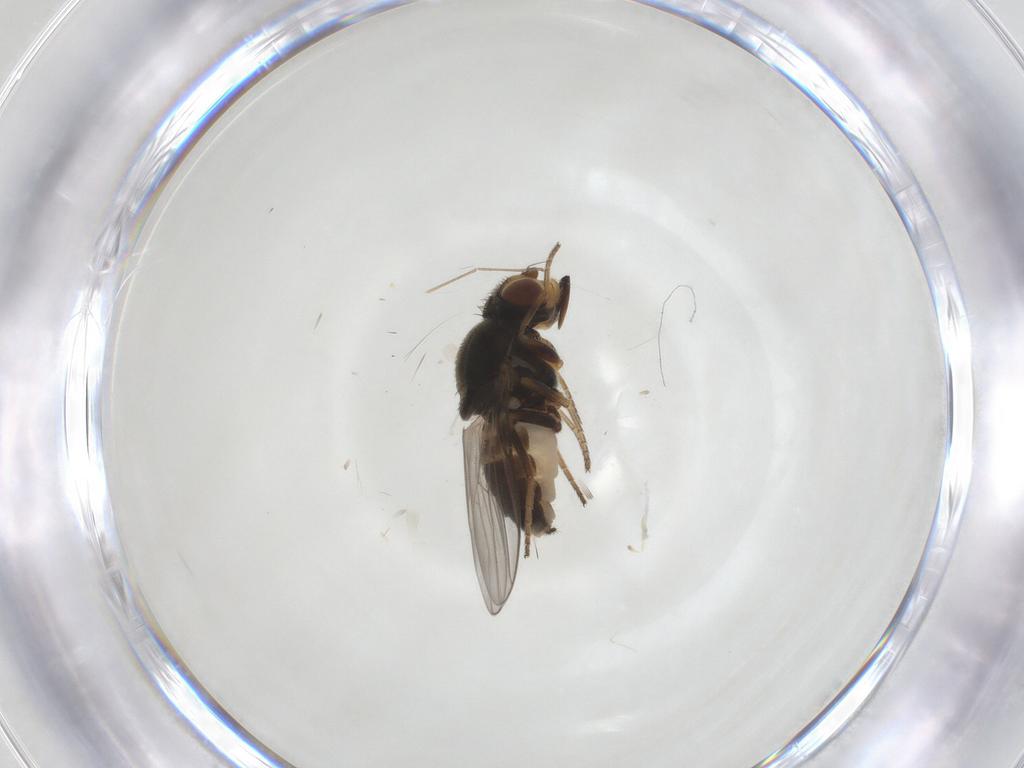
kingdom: Animalia
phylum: Arthropoda
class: Insecta
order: Diptera
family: Chloropidae
